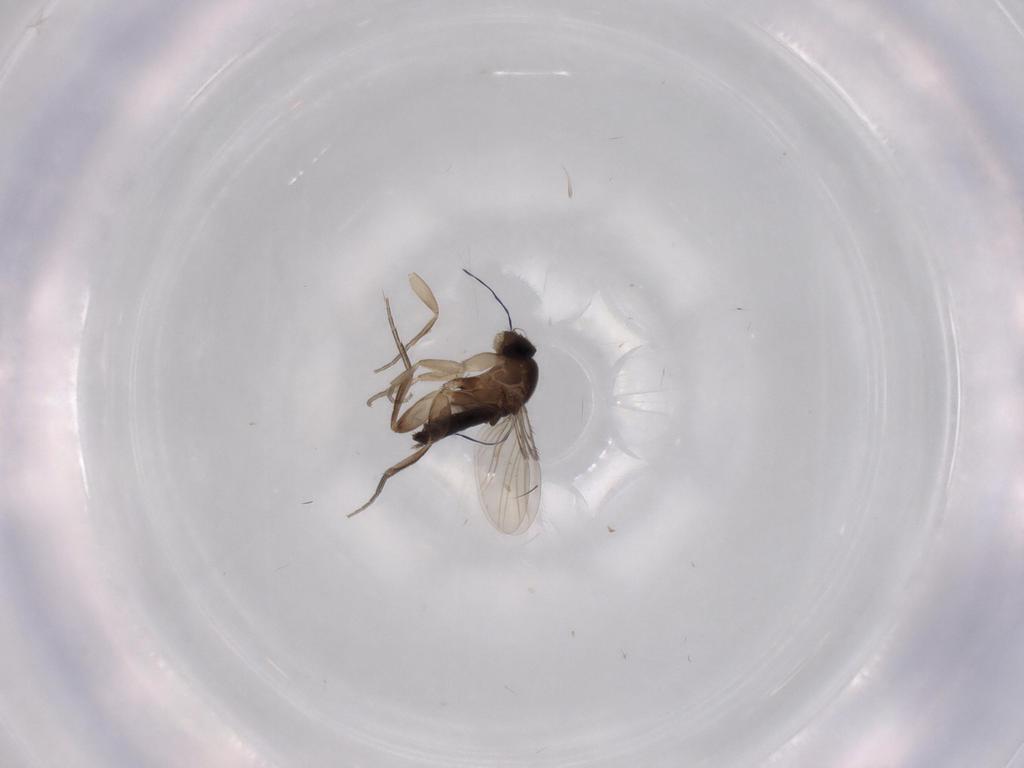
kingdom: Animalia
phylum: Arthropoda
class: Insecta
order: Diptera
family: Phoridae
